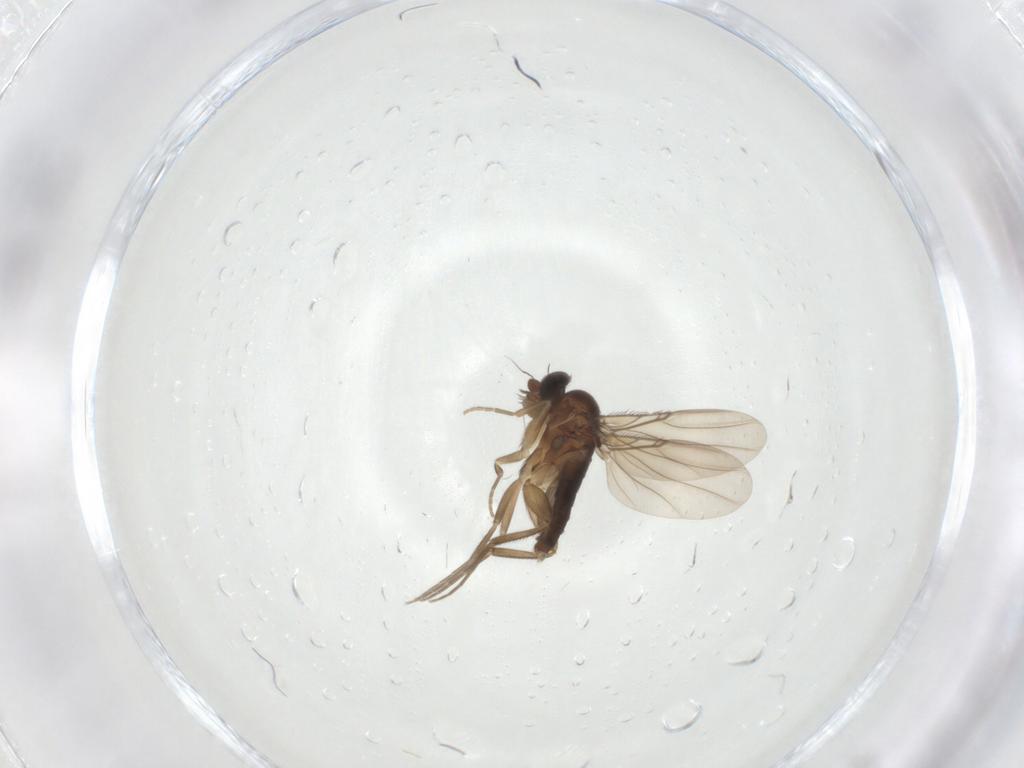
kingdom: Animalia
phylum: Arthropoda
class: Insecta
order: Diptera
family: Phoridae
